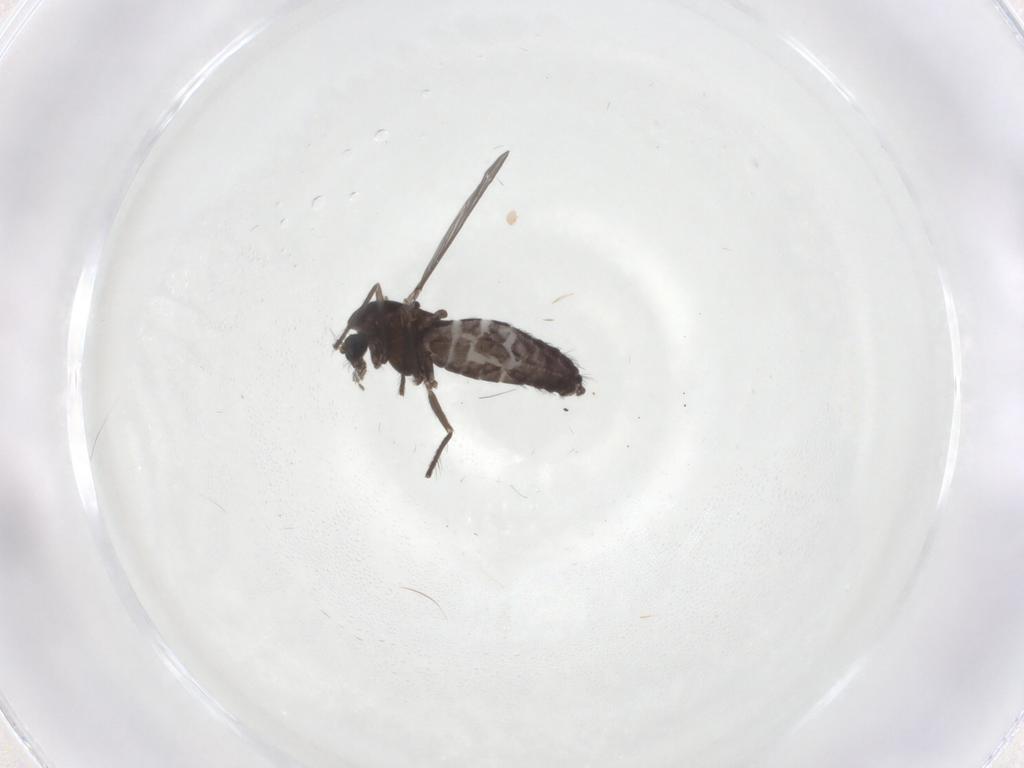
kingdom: Animalia
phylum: Arthropoda
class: Insecta
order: Diptera
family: Chironomidae
